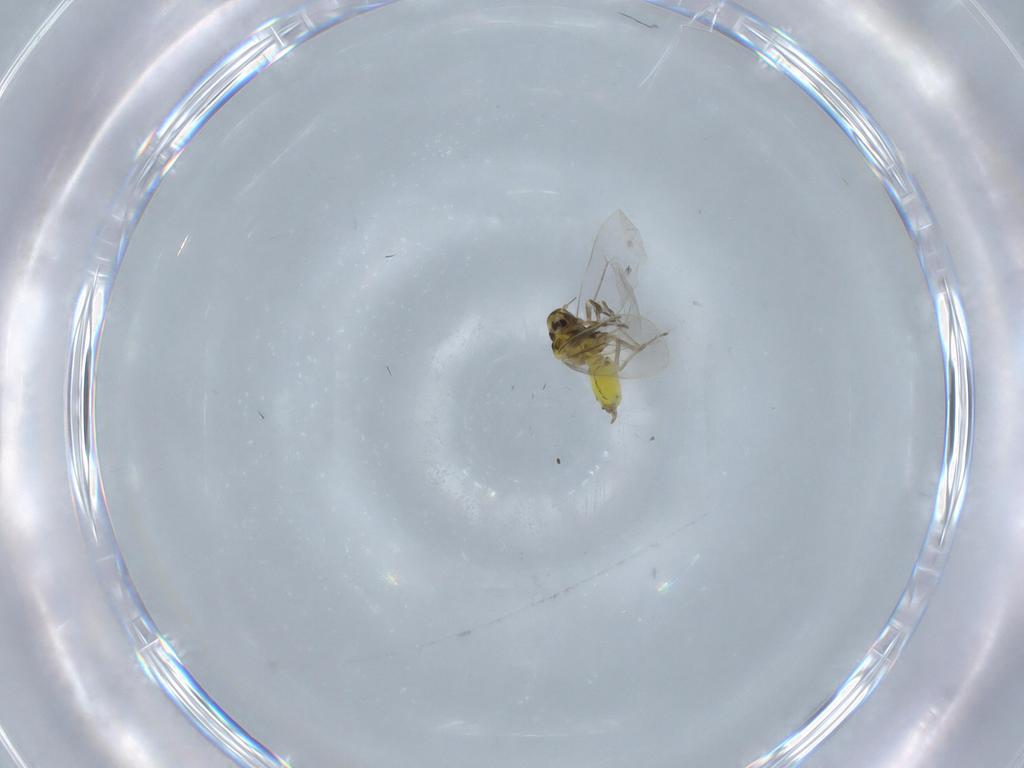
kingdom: Animalia
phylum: Arthropoda
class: Insecta
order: Hemiptera
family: Aleyrodidae
